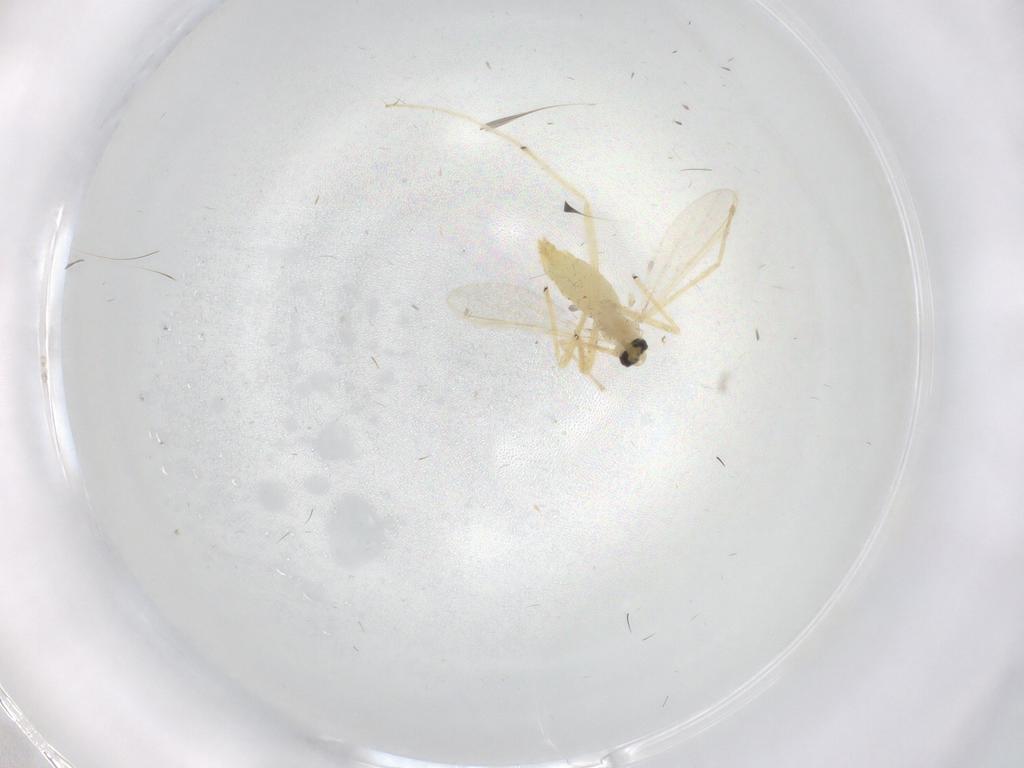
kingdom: Animalia
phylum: Arthropoda
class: Insecta
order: Diptera
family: Chironomidae
